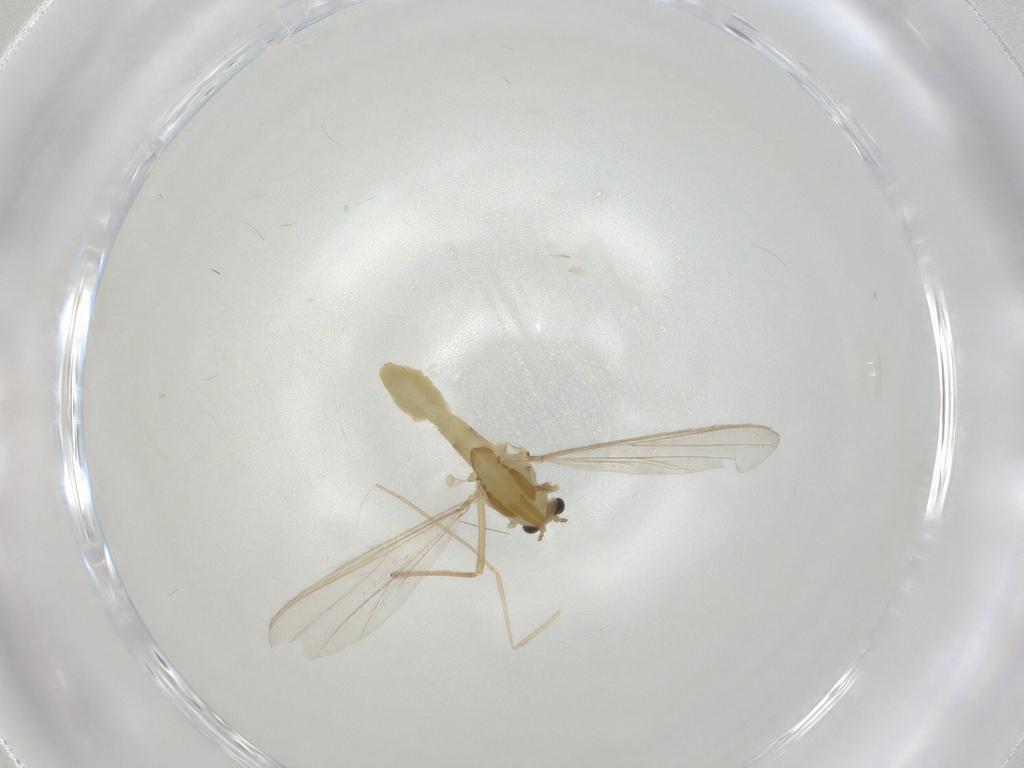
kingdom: Animalia
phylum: Arthropoda
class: Insecta
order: Diptera
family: Cecidomyiidae
